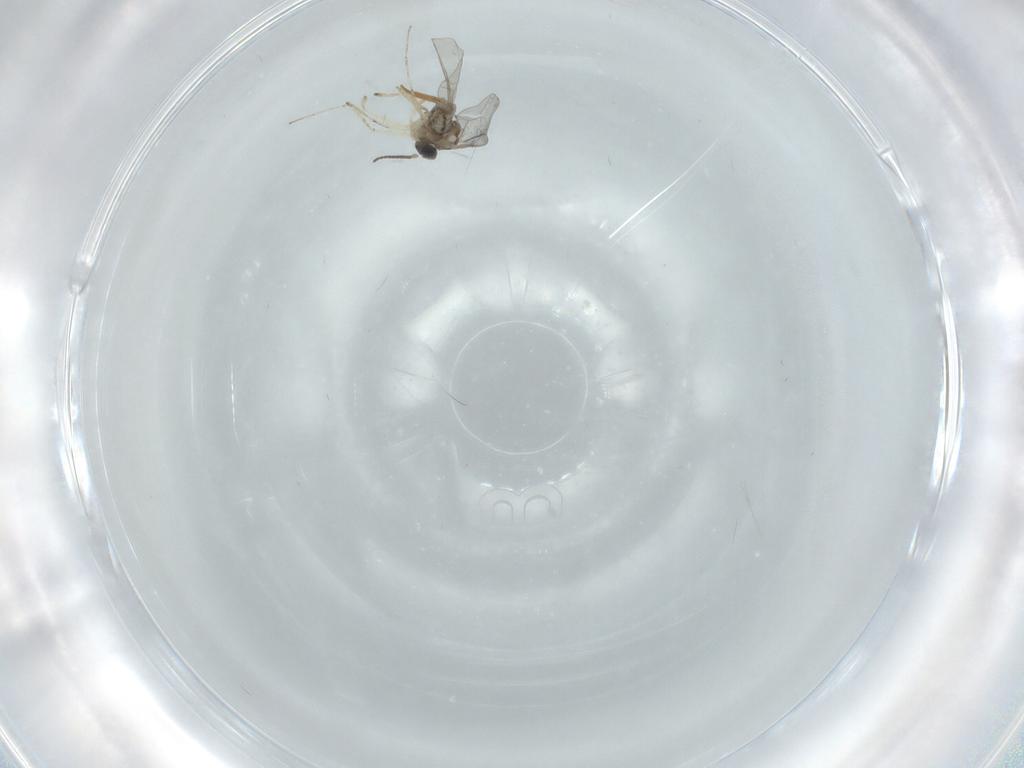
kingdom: Animalia
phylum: Arthropoda
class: Insecta
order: Diptera
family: Cecidomyiidae
